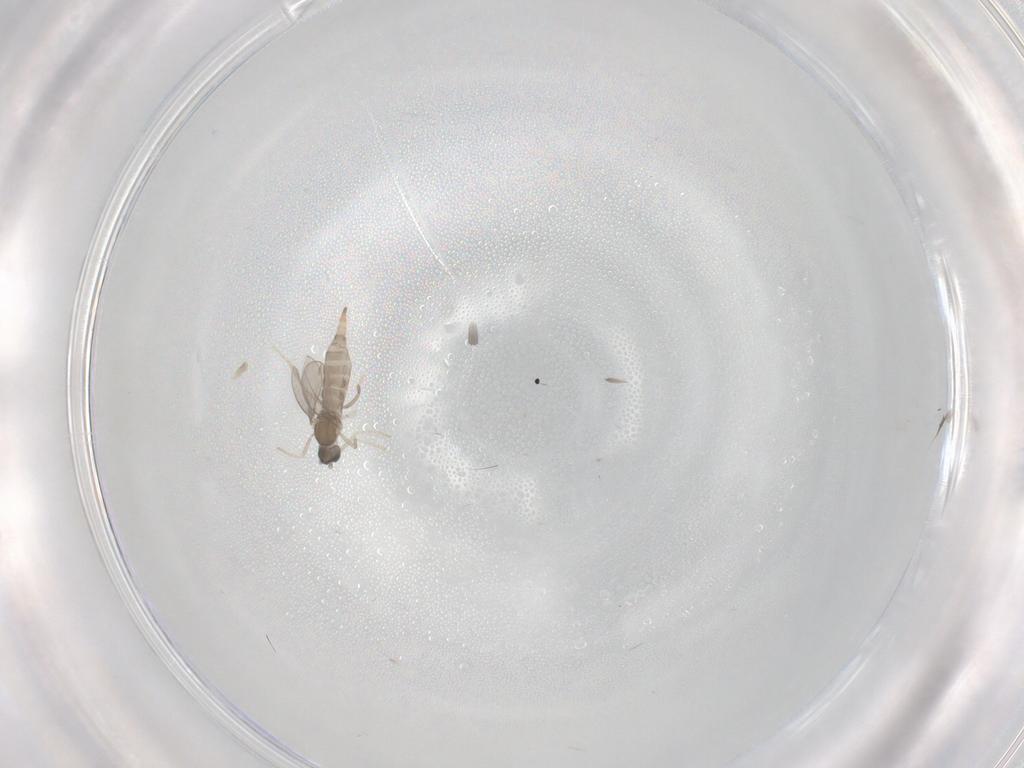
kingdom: Animalia
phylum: Arthropoda
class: Insecta
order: Diptera
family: Cecidomyiidae
